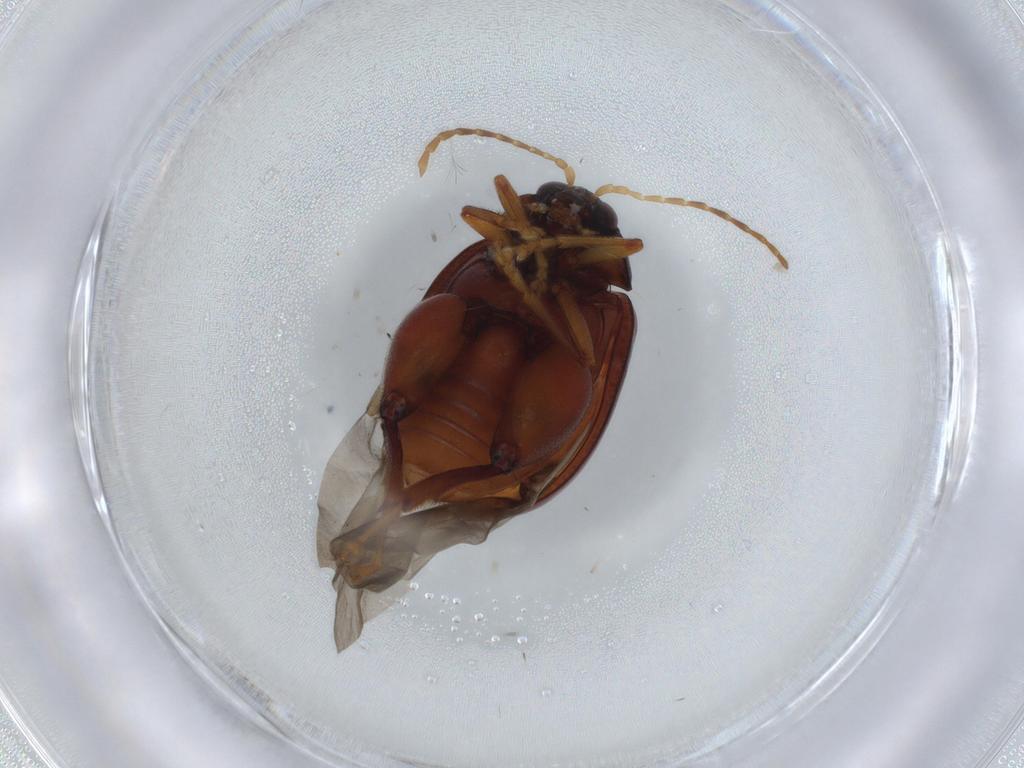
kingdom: Animalia
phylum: Arthropoda
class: Insecta
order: Coleoptera
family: Chrysomelidae
